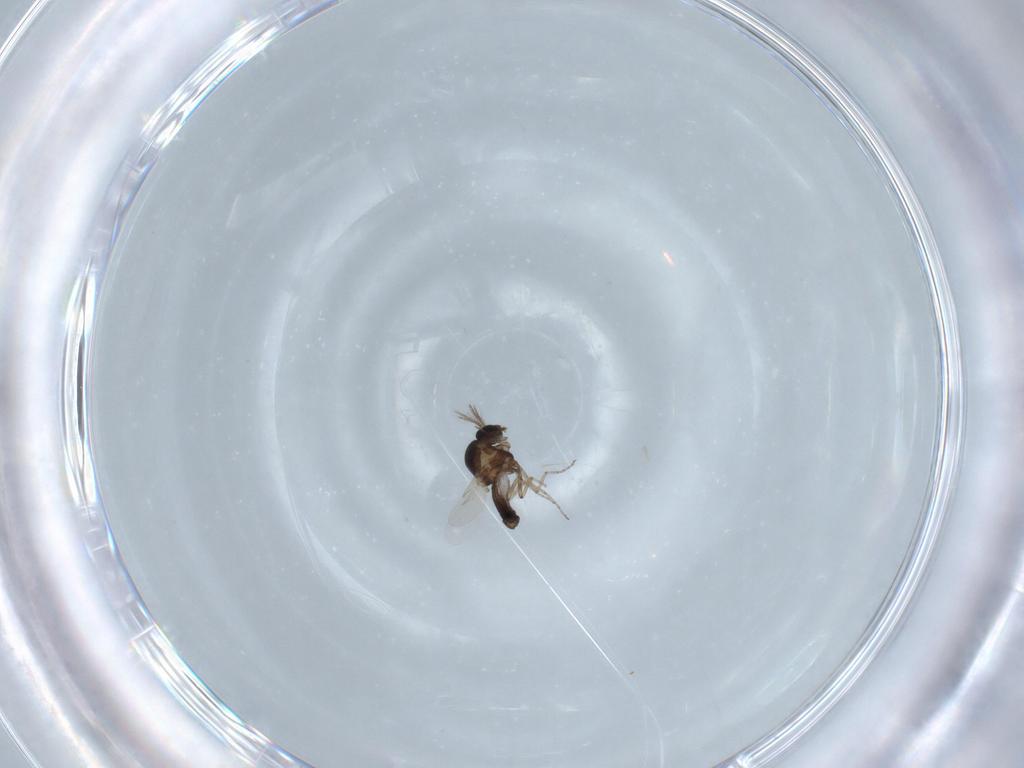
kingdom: Animalia
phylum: Arthropoda
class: Insecta
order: Diptera
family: Ceratopogonidae
